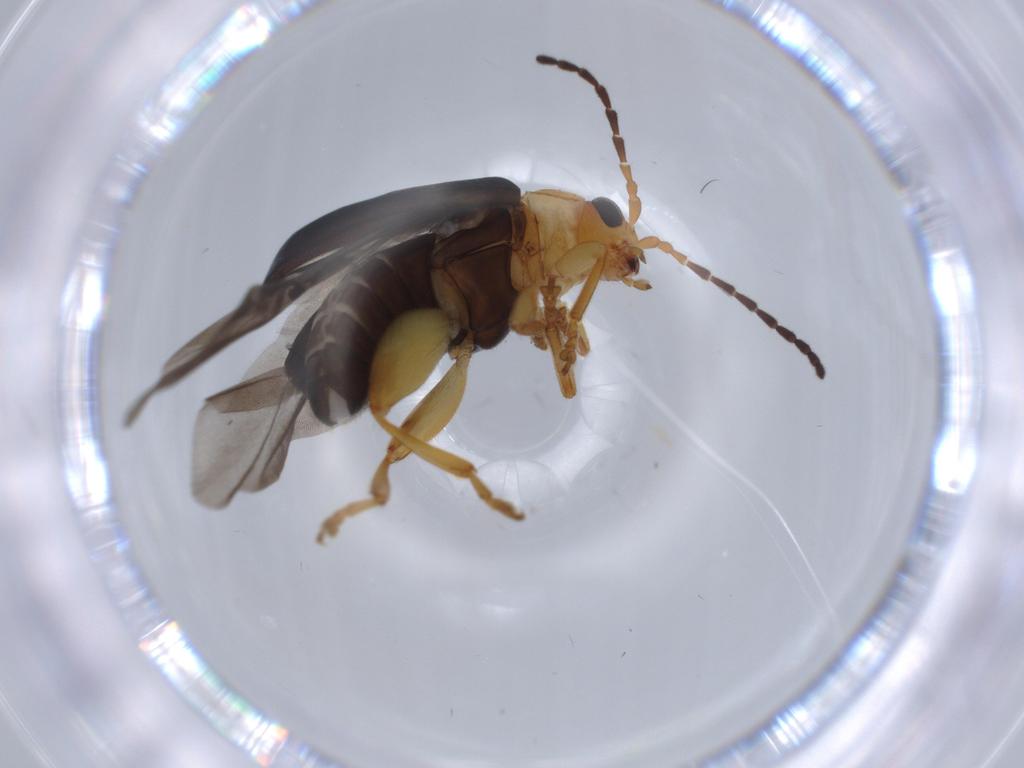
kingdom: Animalia
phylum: Arthropoda
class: Insecta
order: Coleoptera
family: Chrysomelidae
